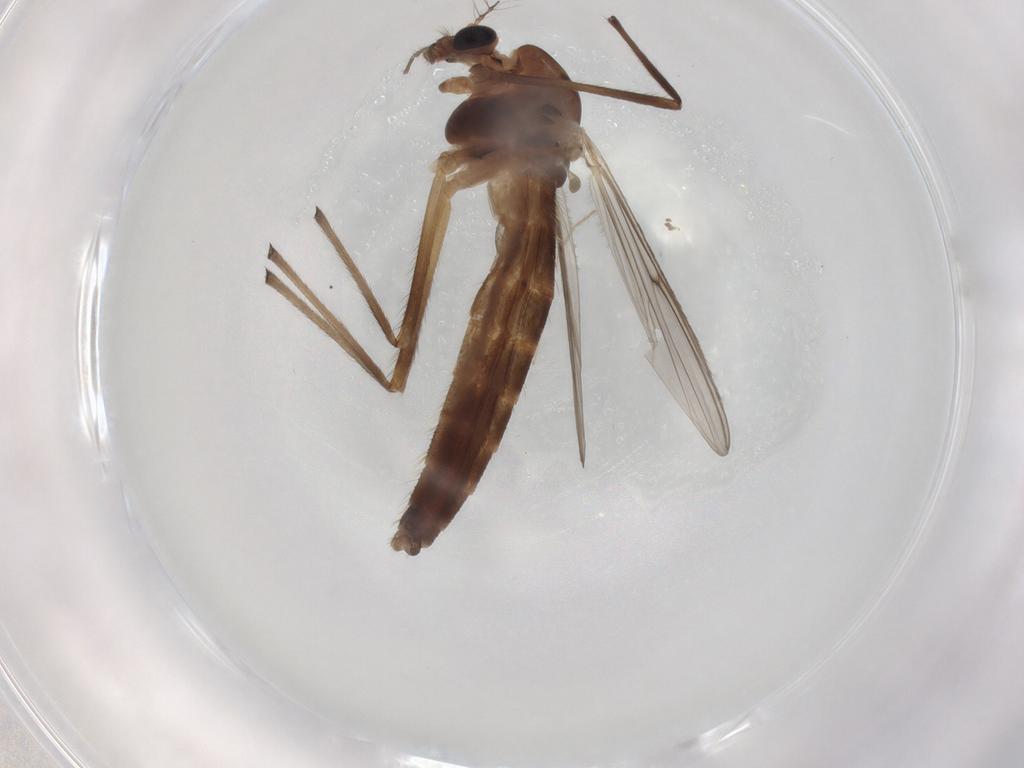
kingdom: Animalia
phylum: Arthropoda
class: Insecta
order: Diptera
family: Chironomidae
